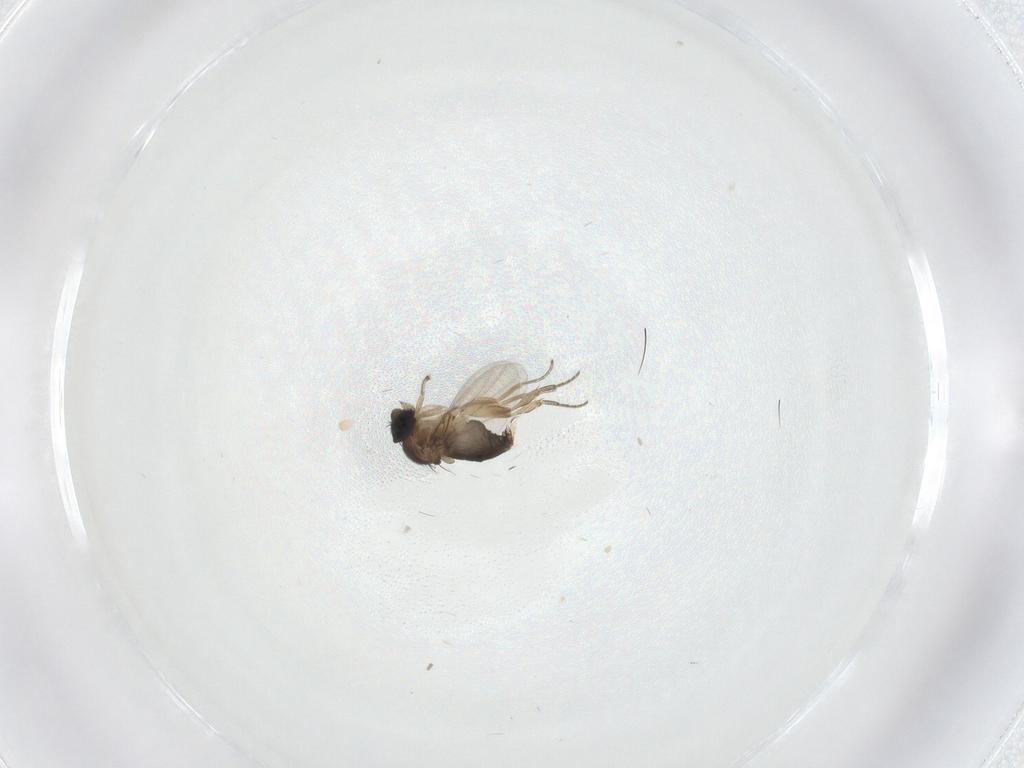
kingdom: Animalia
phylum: Arthropoda
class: Insecta
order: Diptera
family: Phoridae
